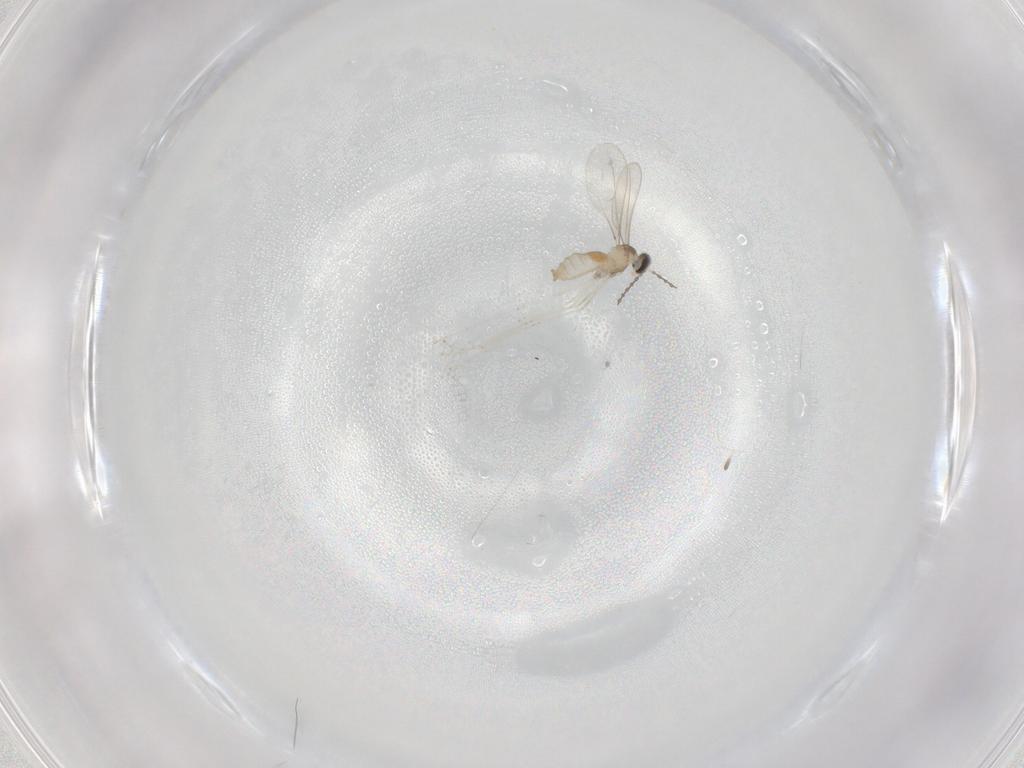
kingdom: Animalia
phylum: Arthropoda
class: Insecta
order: Diptera
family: Cecidomyiidae
